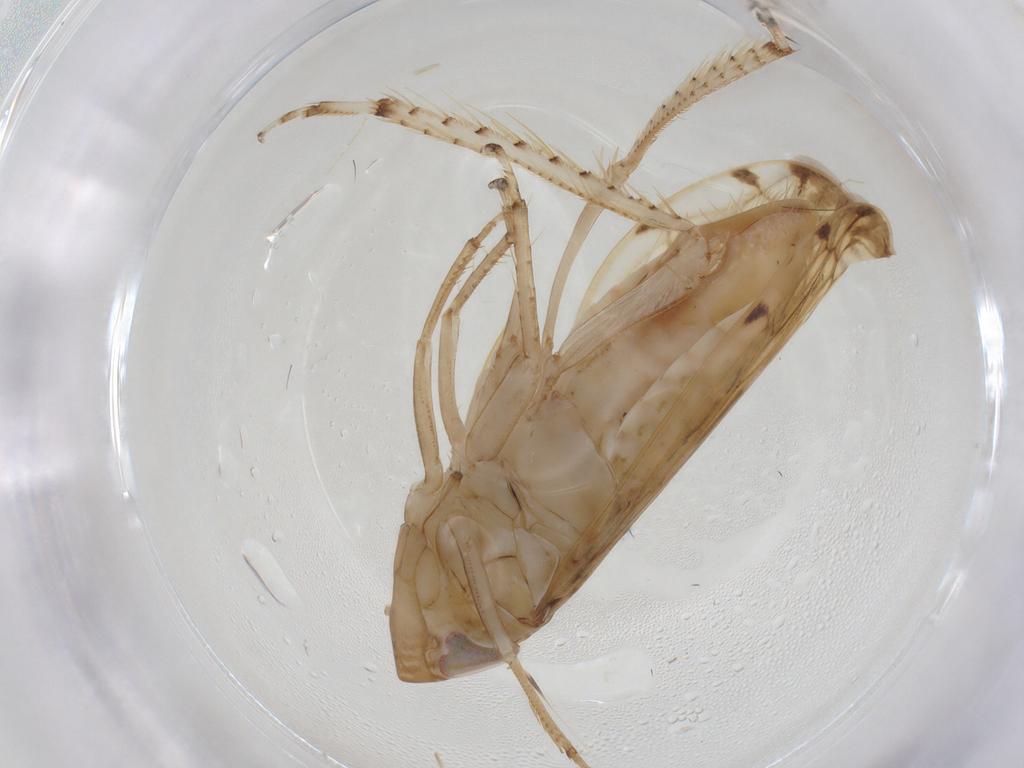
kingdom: Animalia
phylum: Arthropoda
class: Insecta
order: Hemiptera
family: Cicadellidae
